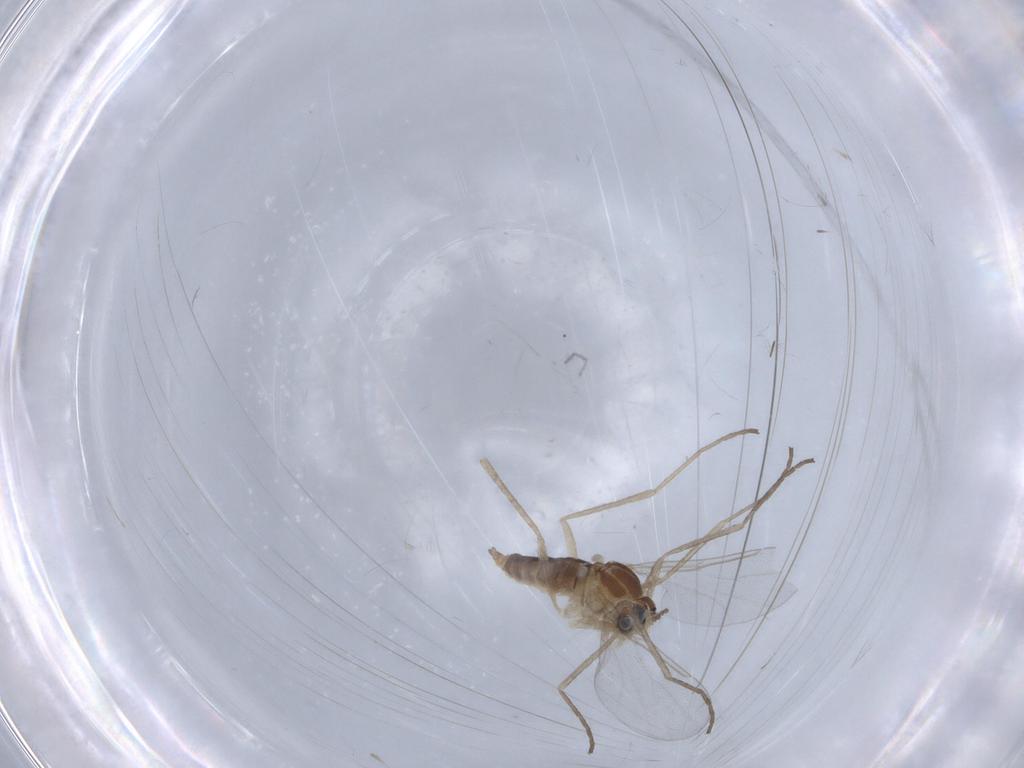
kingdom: Animalia
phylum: Arthropoda
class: Insecta
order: Diptera
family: Cecidomyiidae
